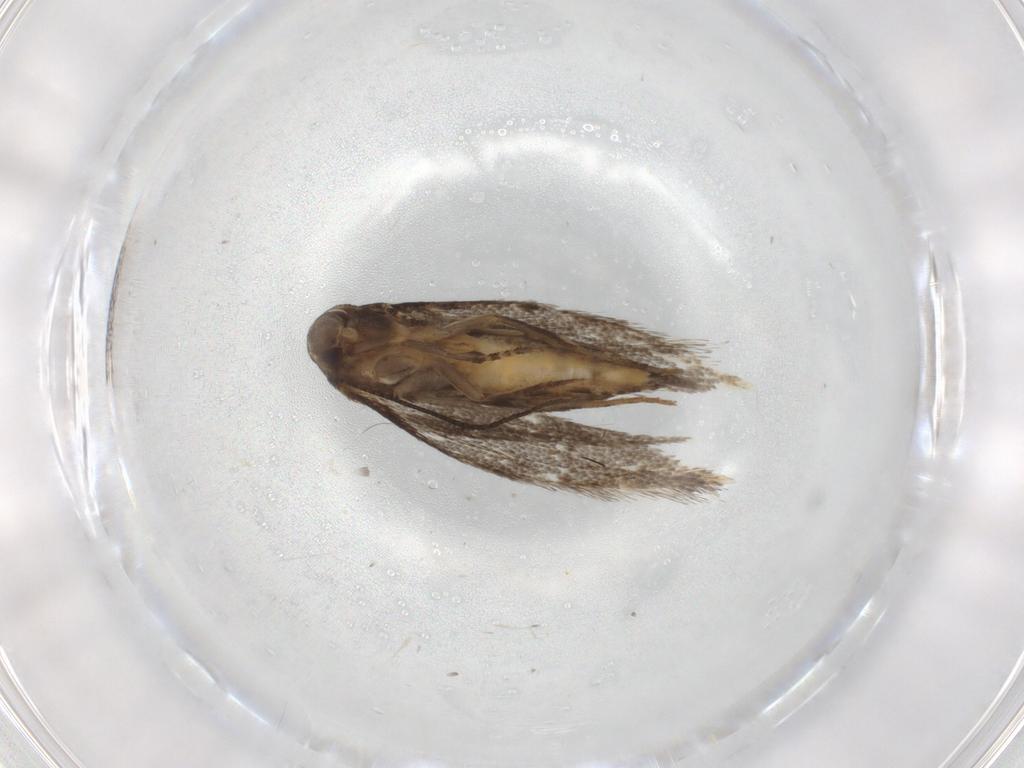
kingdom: Animalia
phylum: Arthropoda
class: Insecta
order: Lepidoptera
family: Elachistidae
